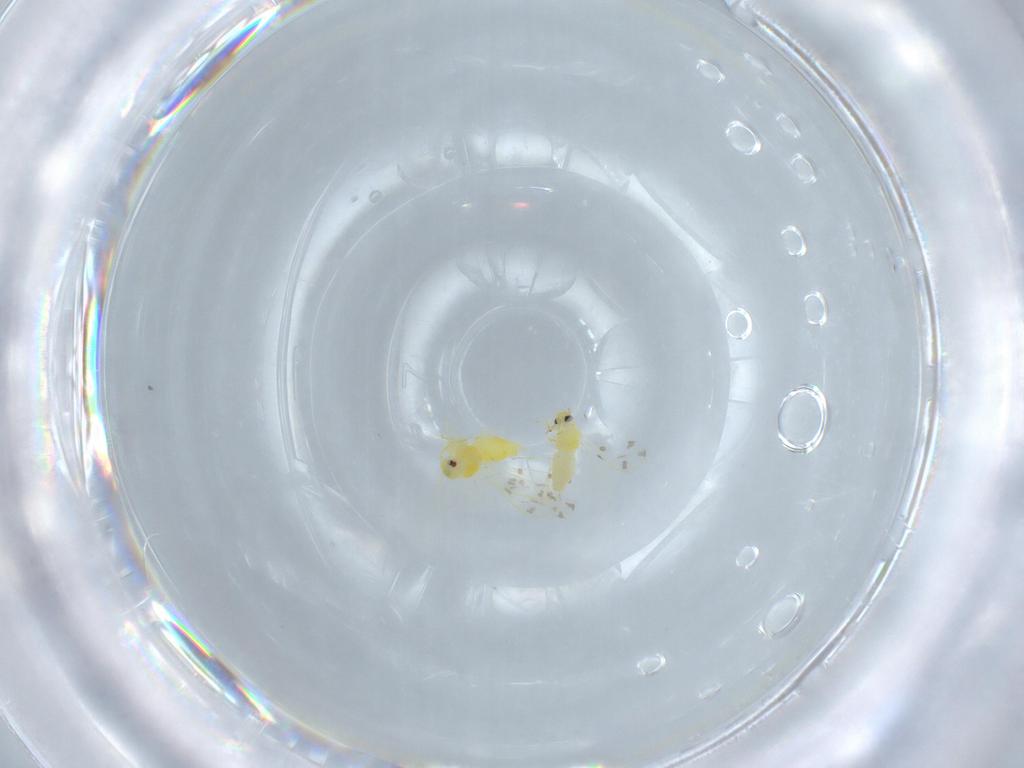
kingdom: Animalia
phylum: Arthropoda
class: Insecta
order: Hemiptera
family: Aleyrodidae
